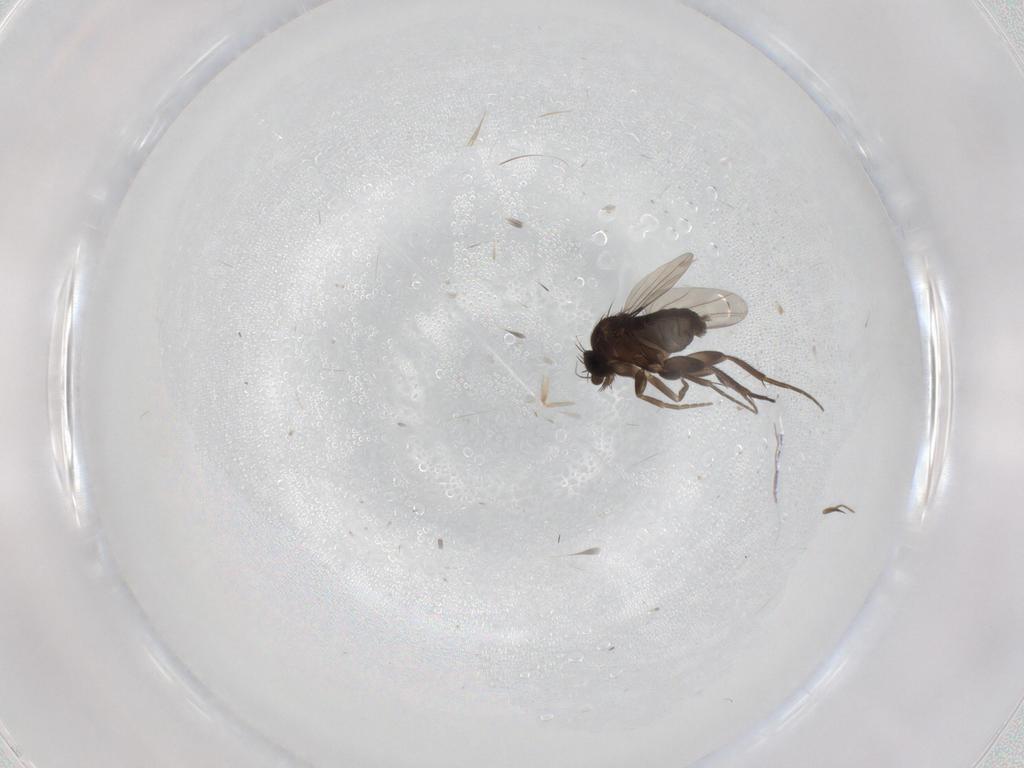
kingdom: Animalia
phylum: Arthropoda
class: Insecta
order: Diptera
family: Ceratopogonidae
